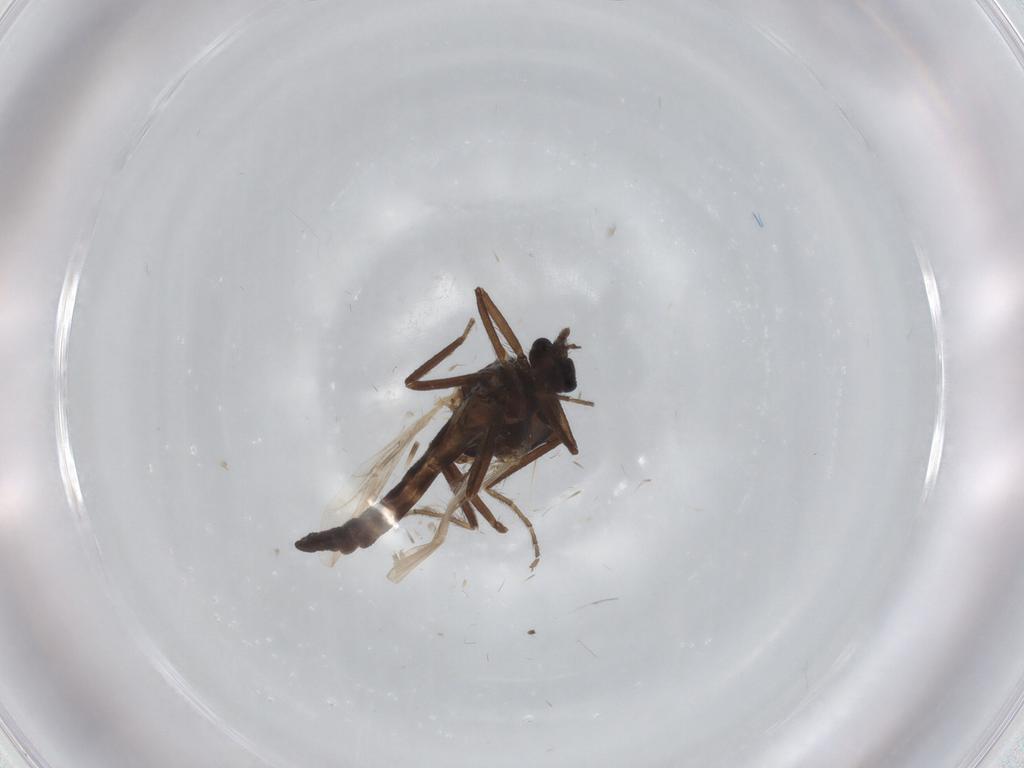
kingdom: Animalia
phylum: Arthropoda
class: Insecta
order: Diptera
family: Ceratopogonidae
